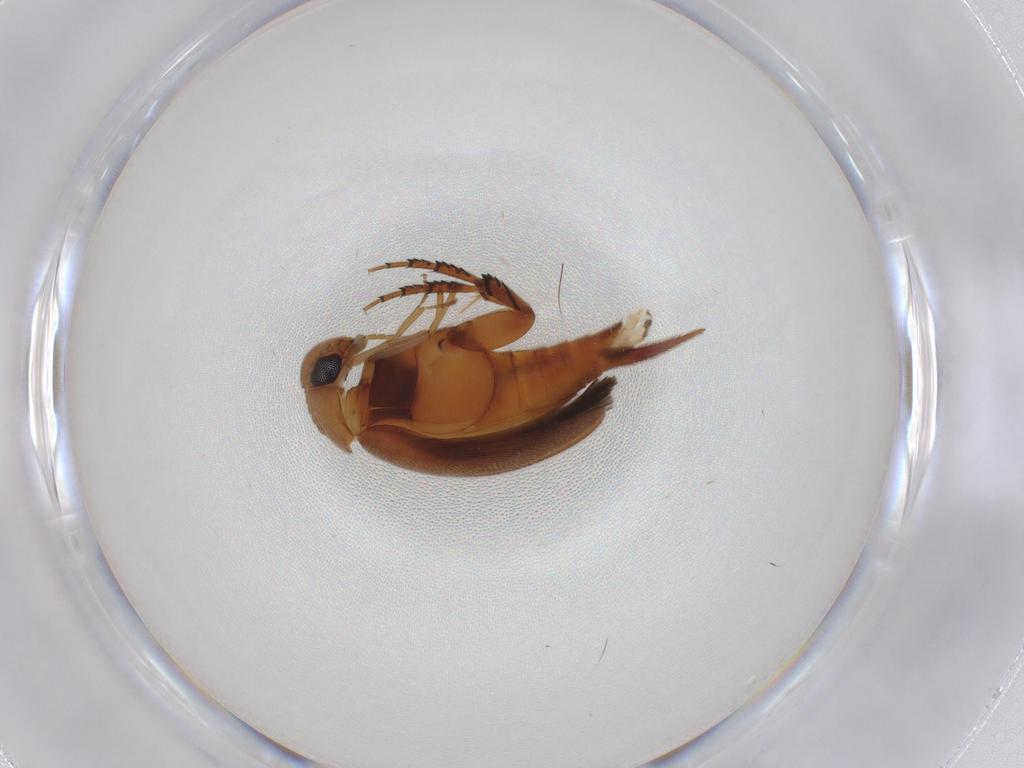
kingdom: Animalia
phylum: Arthropoda
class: Insecta
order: Coleoptera
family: Mordellidae
